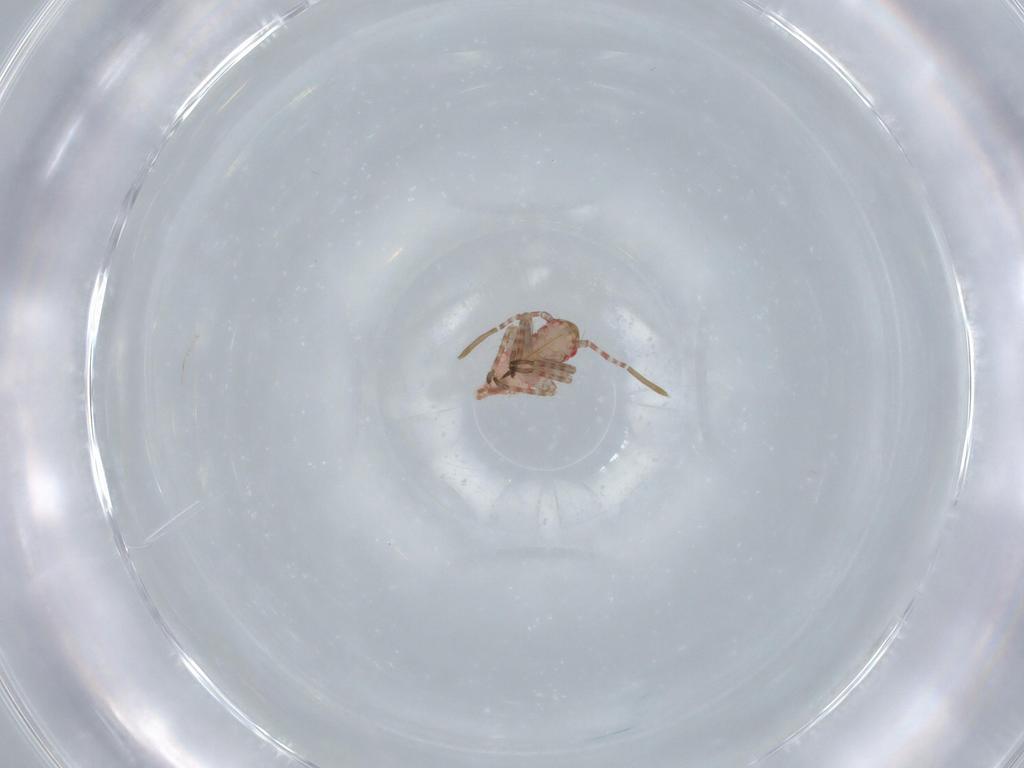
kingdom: Animalia
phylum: Arthropoda
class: Insecta
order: Hemiptera
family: Miridae
